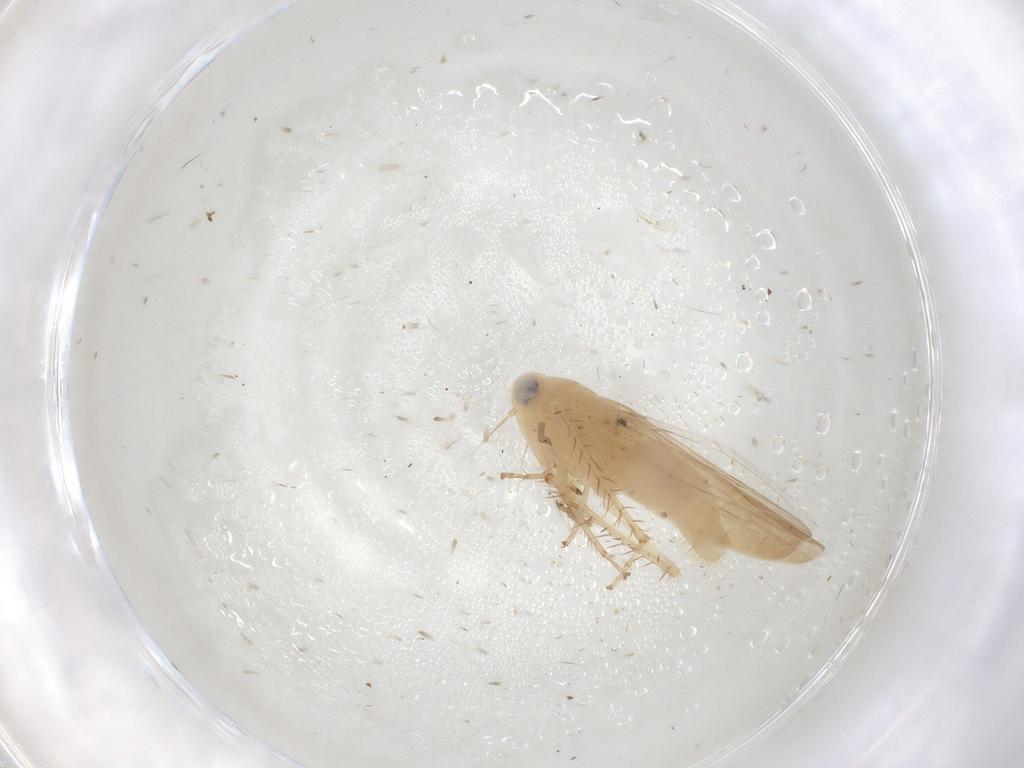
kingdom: Animalia
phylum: Arthropoda
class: Insecta
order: Hemiptera
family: Cicadellidae
